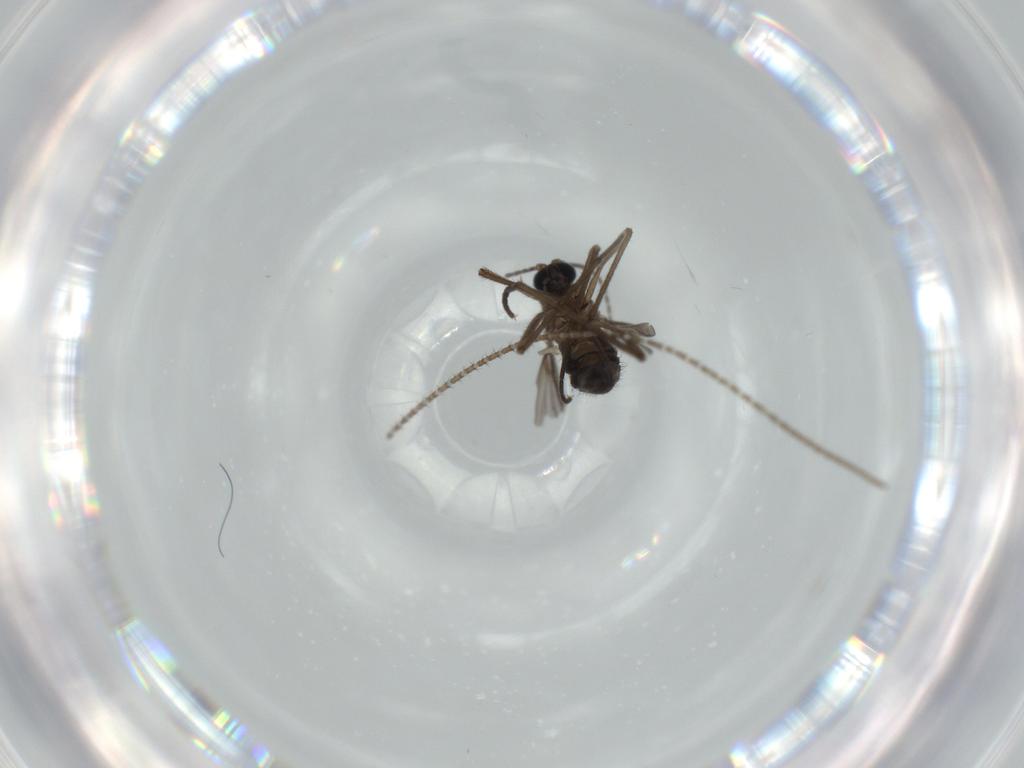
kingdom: Animalia
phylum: Arthropoda
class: Insecta
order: Diptera
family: Sciaridae
